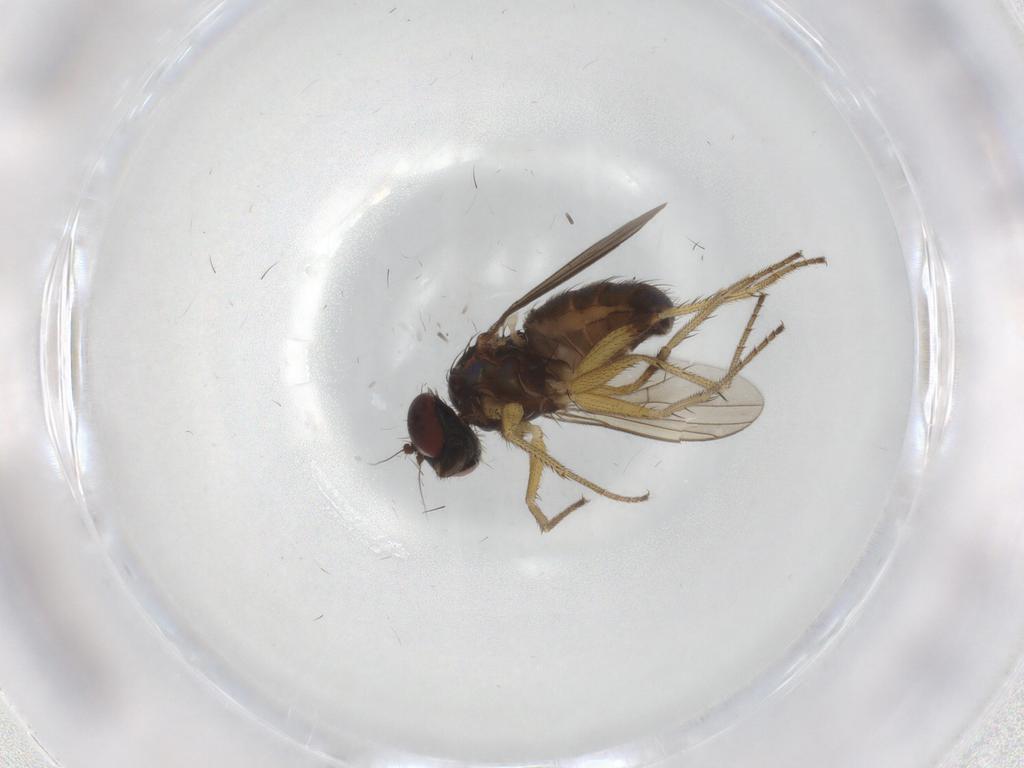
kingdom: Animalia
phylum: Arthropoda
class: Insecta
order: Diptera
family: Dolichopodidae
